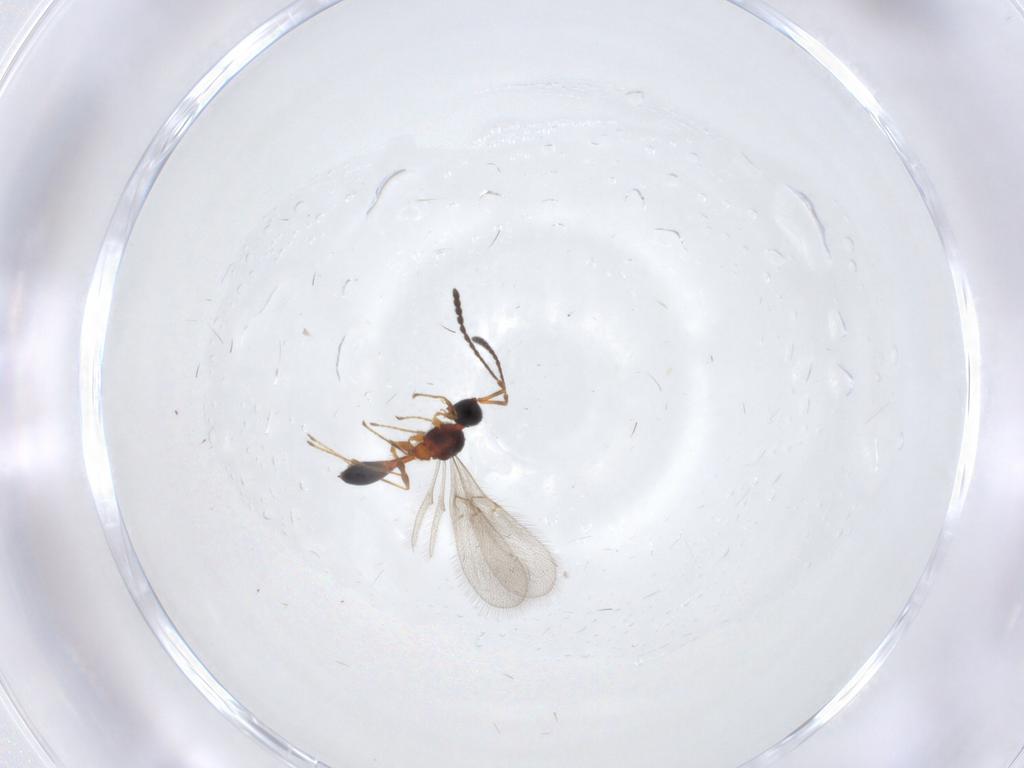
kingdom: Animalia
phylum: Arthropoda
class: Insecta
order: Hymenoptera
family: Diapriidae
